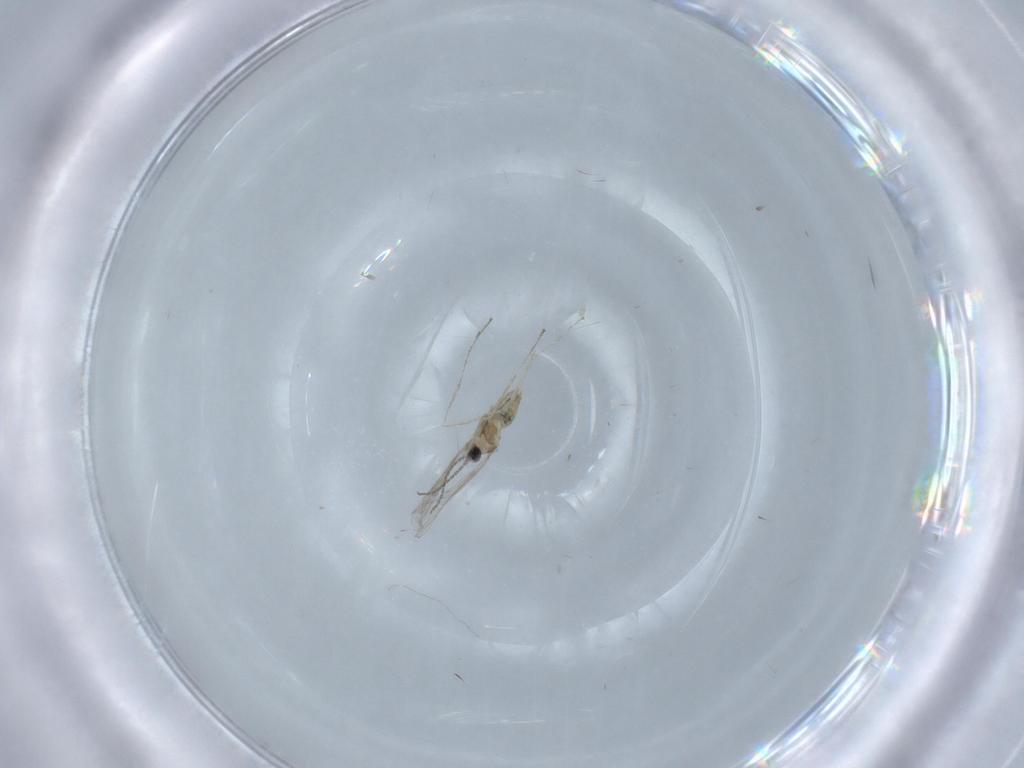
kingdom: Animalia
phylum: Arthropoda
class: Insecta
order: Diptera
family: Cecidomyiidae
